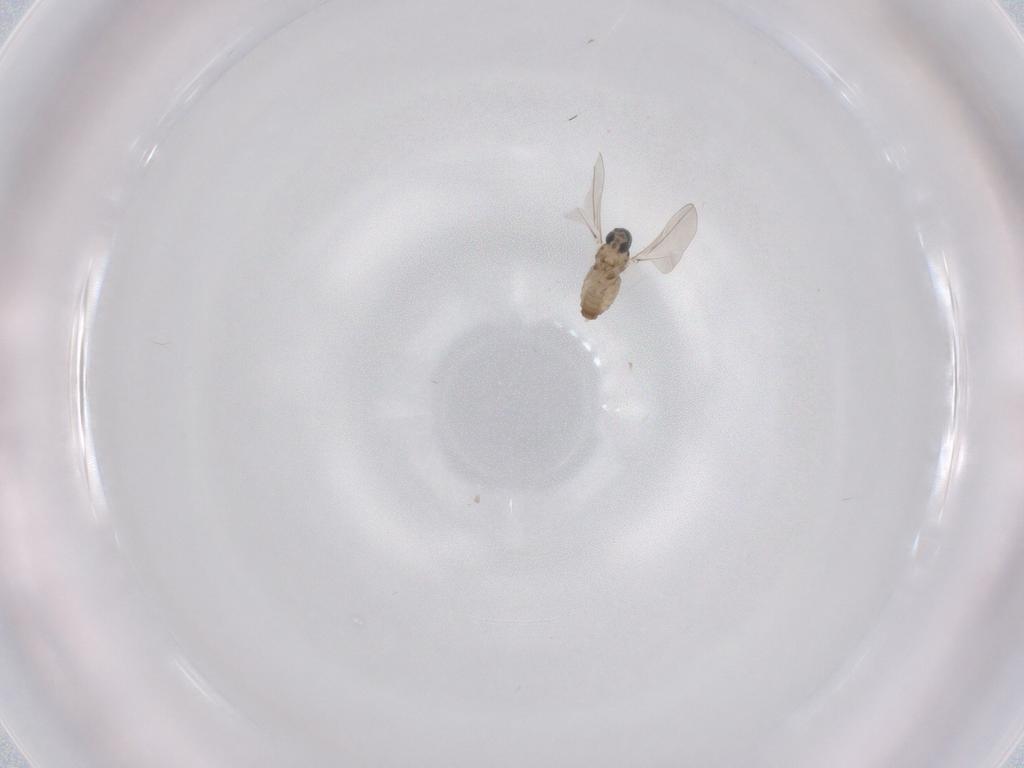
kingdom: Animalia
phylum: Arthropoda
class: Insecta
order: Diptera
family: Cecidomyiidae
